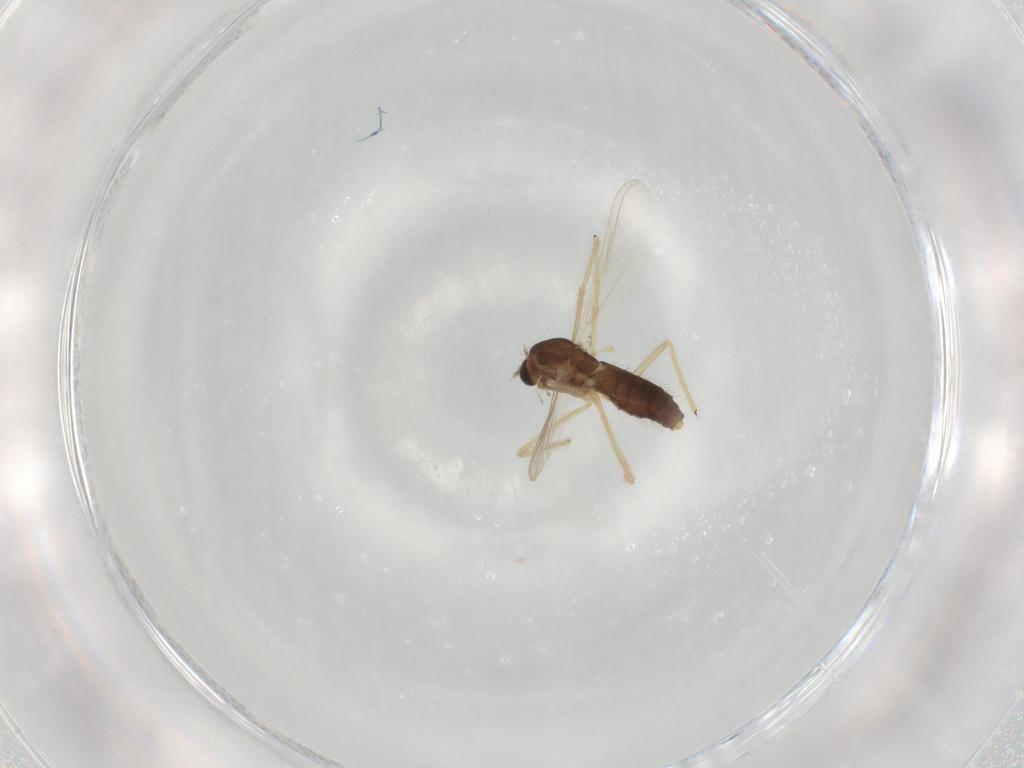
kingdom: Animalia
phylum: Arthropoda
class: Insecta
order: Diptera
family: Chironomidae
